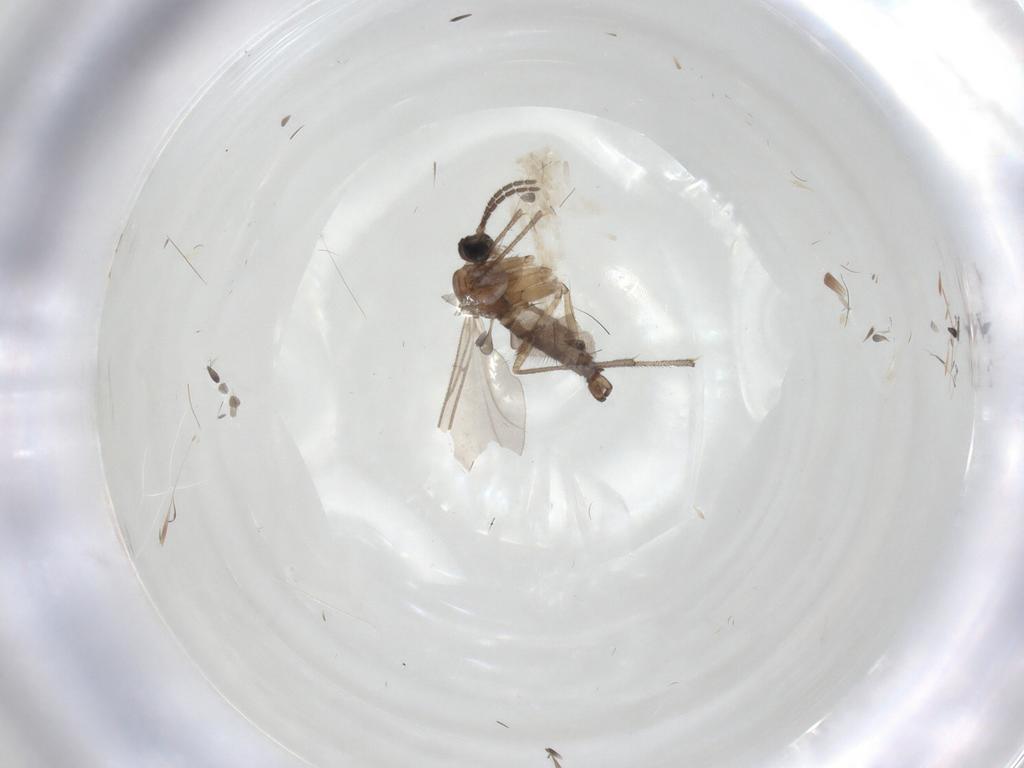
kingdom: Animalia
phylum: Arthropoda
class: Insecta
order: Diptera
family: Sciaridae
